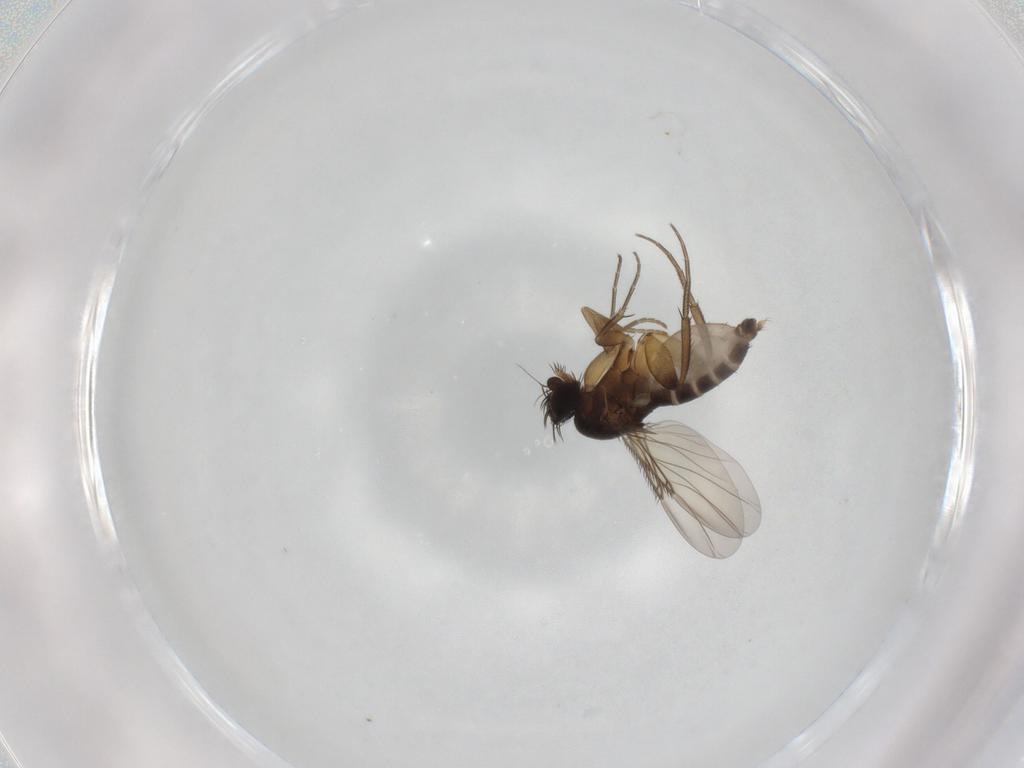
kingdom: Animalia
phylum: Arthropoda
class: Insecta
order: Diptera
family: Phoridae
